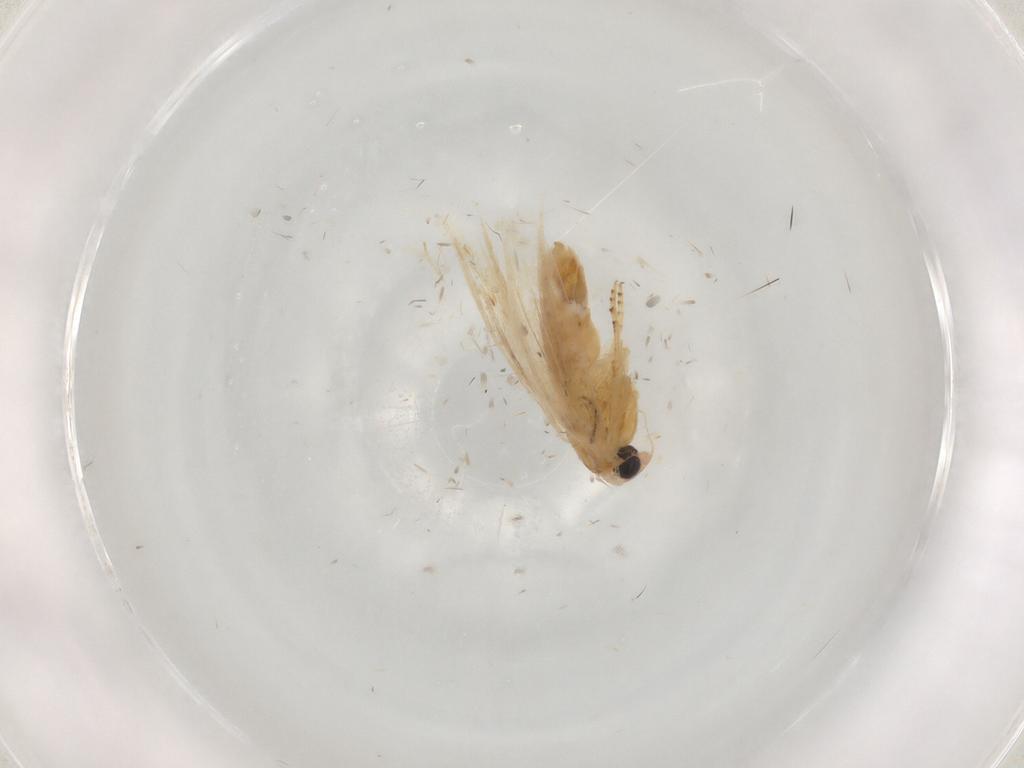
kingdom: Animalia
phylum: Arthropoda
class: Insecta
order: Lepidoptera
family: Noctuidae
